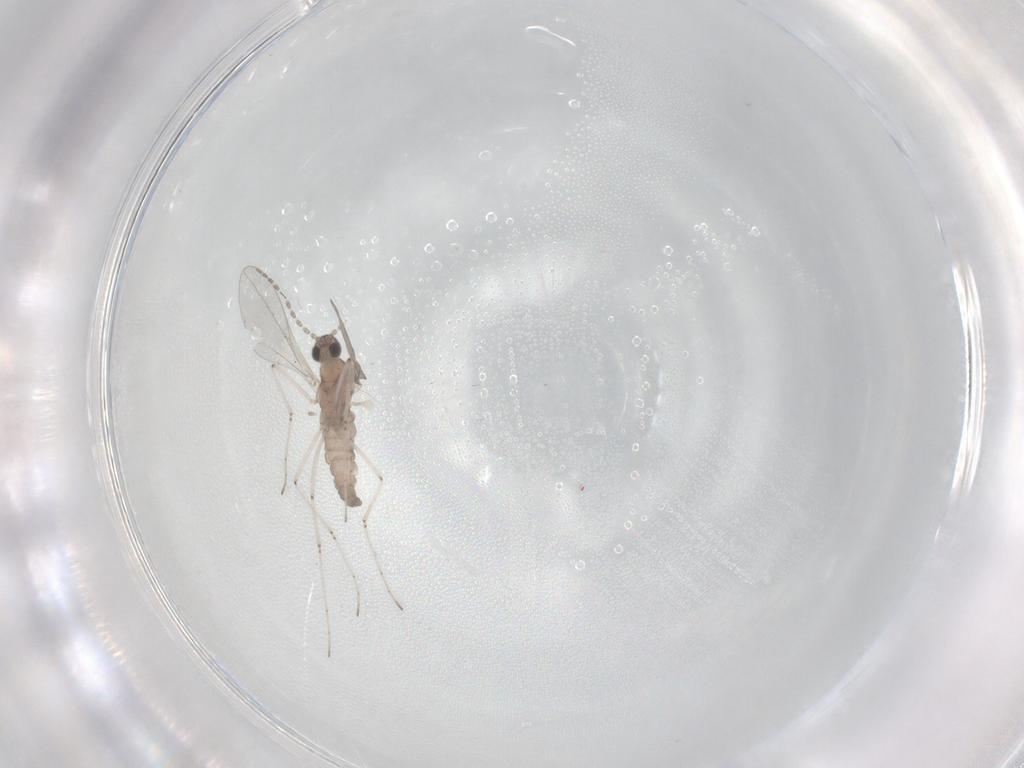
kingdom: Animalia
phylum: Arthropoda
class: Insecta
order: Diptera
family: Cecidomyiidae
